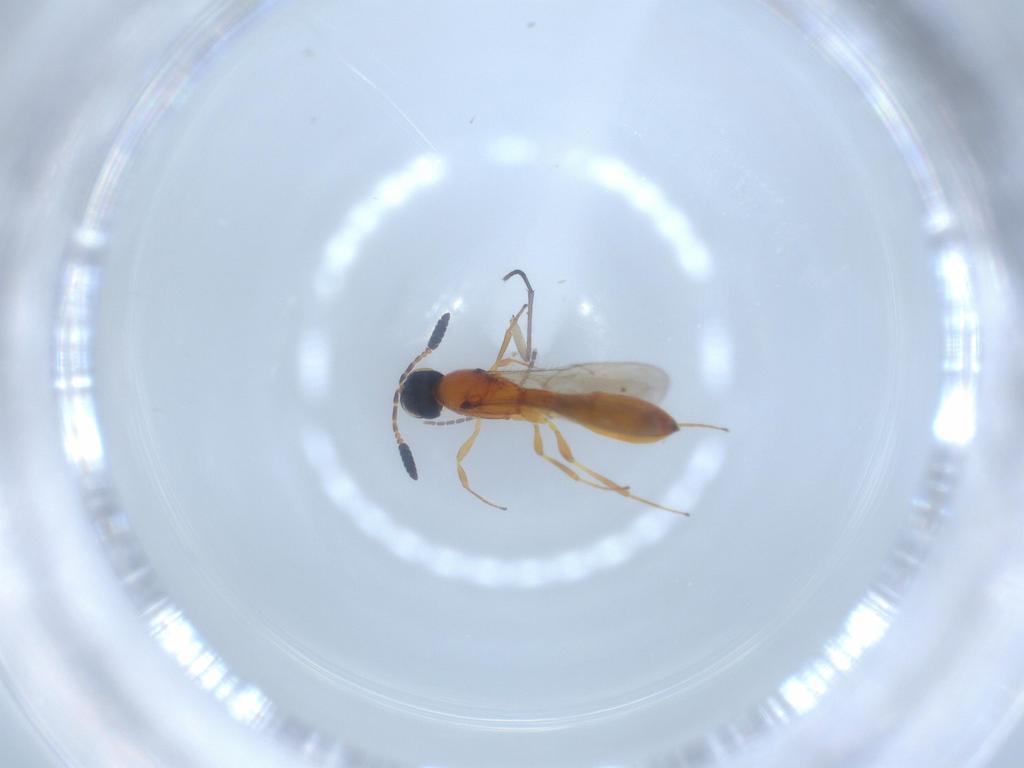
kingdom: Animalia
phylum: Arthropoda
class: Insecta
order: Hymenoptera
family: Scelionidae
